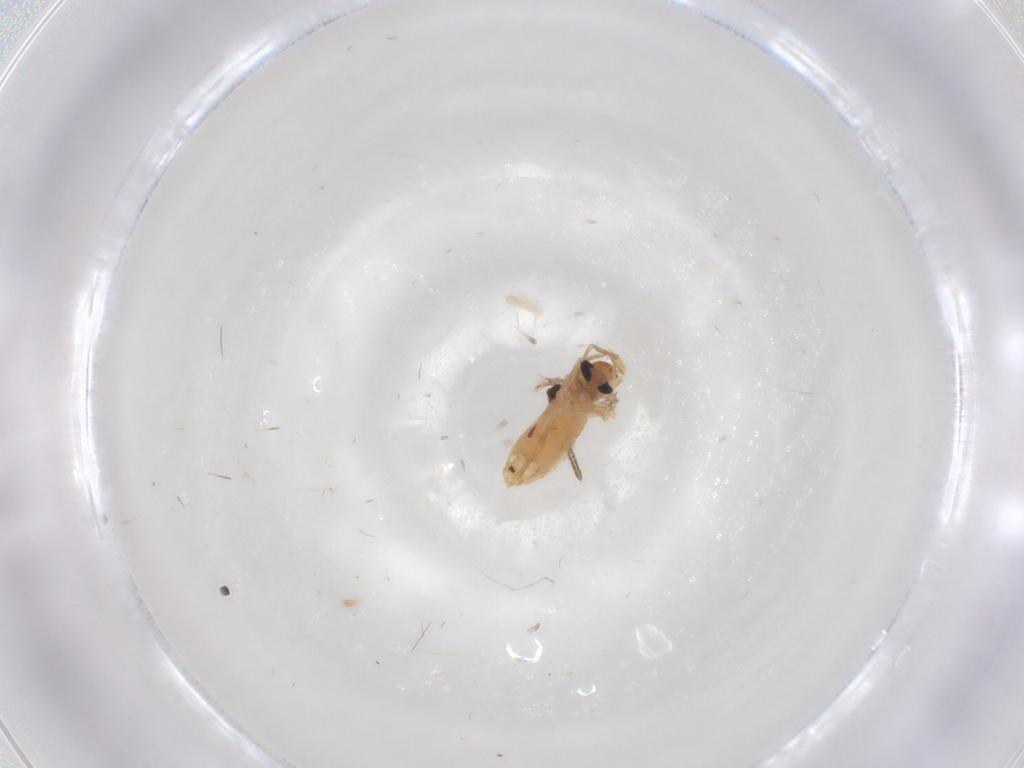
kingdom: Animalia
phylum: Arthropoda
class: Insecta
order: Diptera
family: Chironomidae
